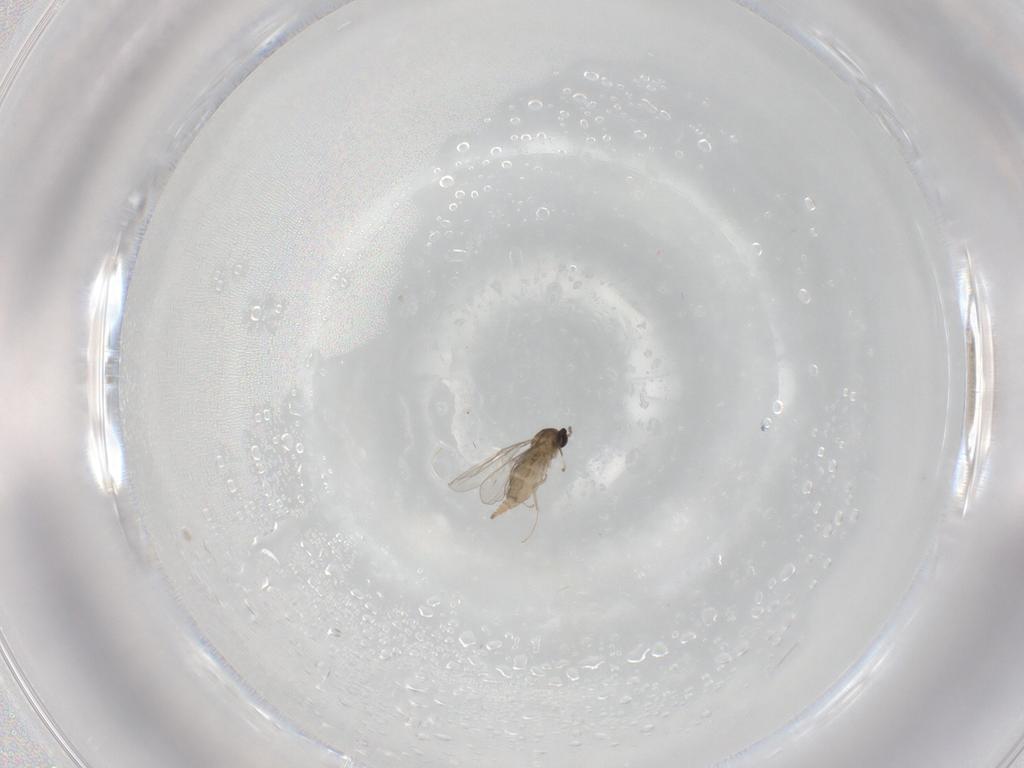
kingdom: Animalia
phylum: Arthropoda
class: Insecta
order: Diptera
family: Cecidomyiidae
